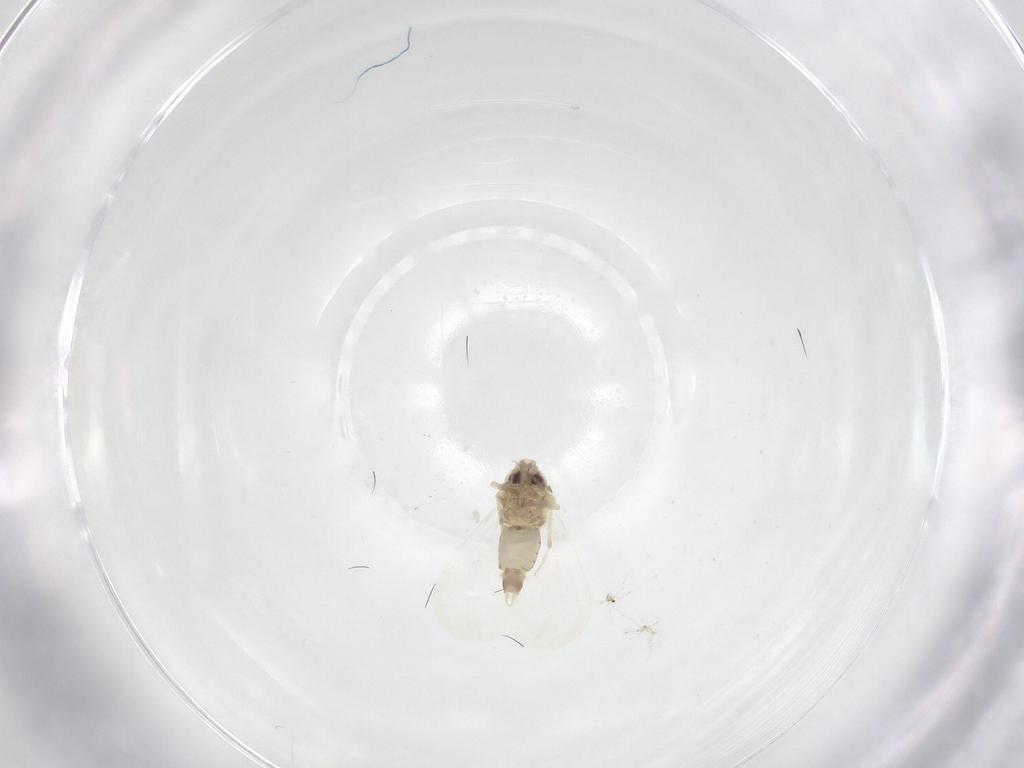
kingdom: Animalia
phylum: Arthropoda
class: Insecta
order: Hemiptera
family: Aleyrodidae
